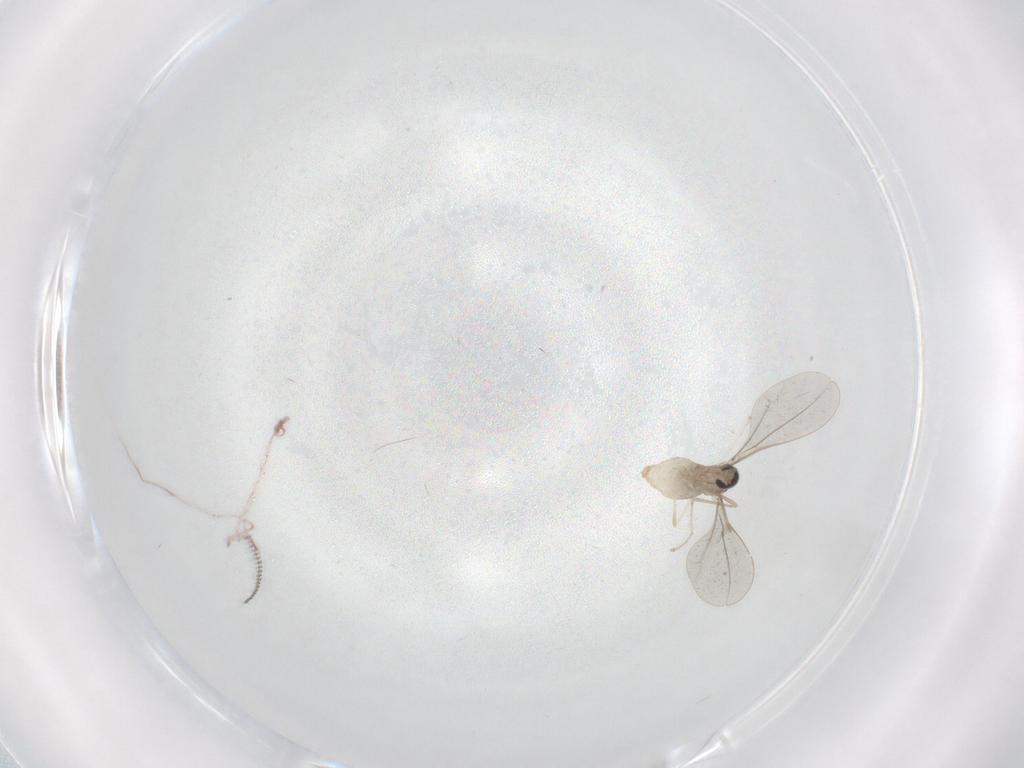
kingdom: Animalia
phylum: Arthropoda
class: Insecta
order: Diptera
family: Cecidomyiidae
